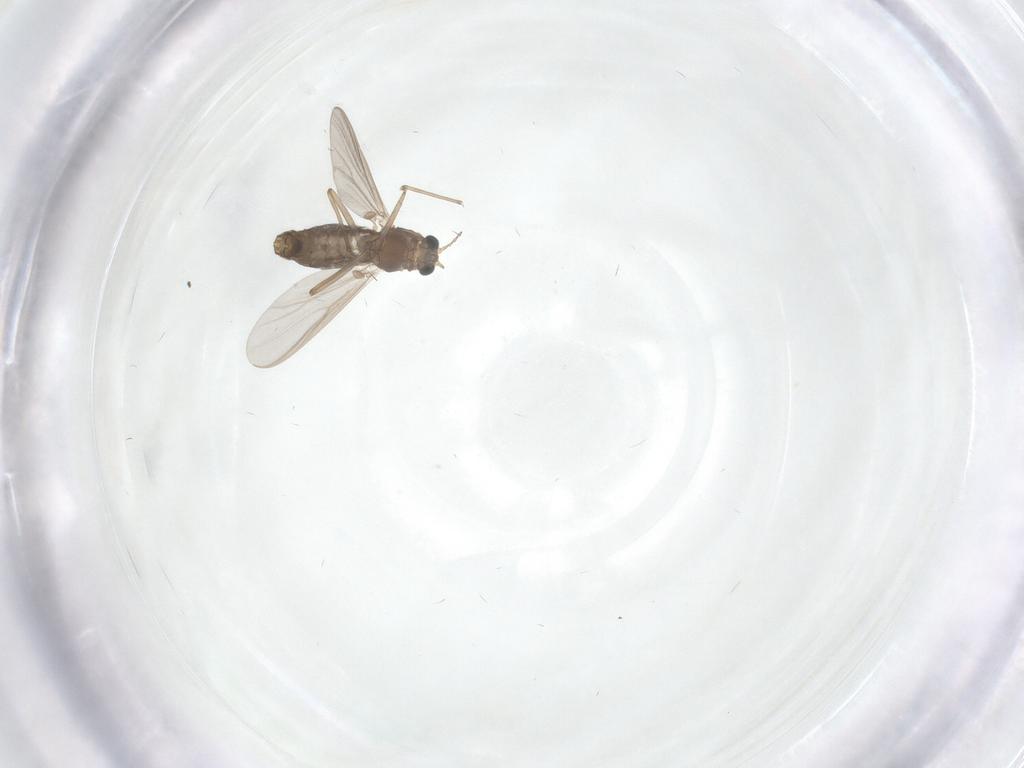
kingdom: Animalia
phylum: Arthropoda
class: Insecta
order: Diptera
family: Chironomidae
